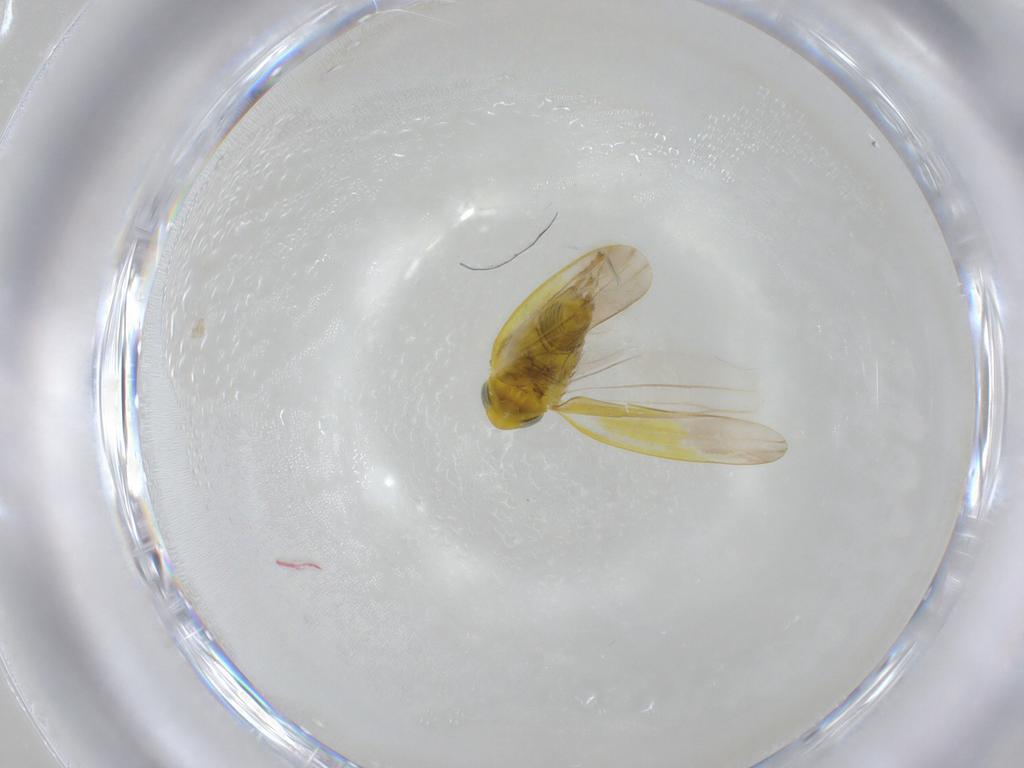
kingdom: Animalia
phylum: Arthropoda
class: Insecta
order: Hemiptera
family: Cicadellidae
